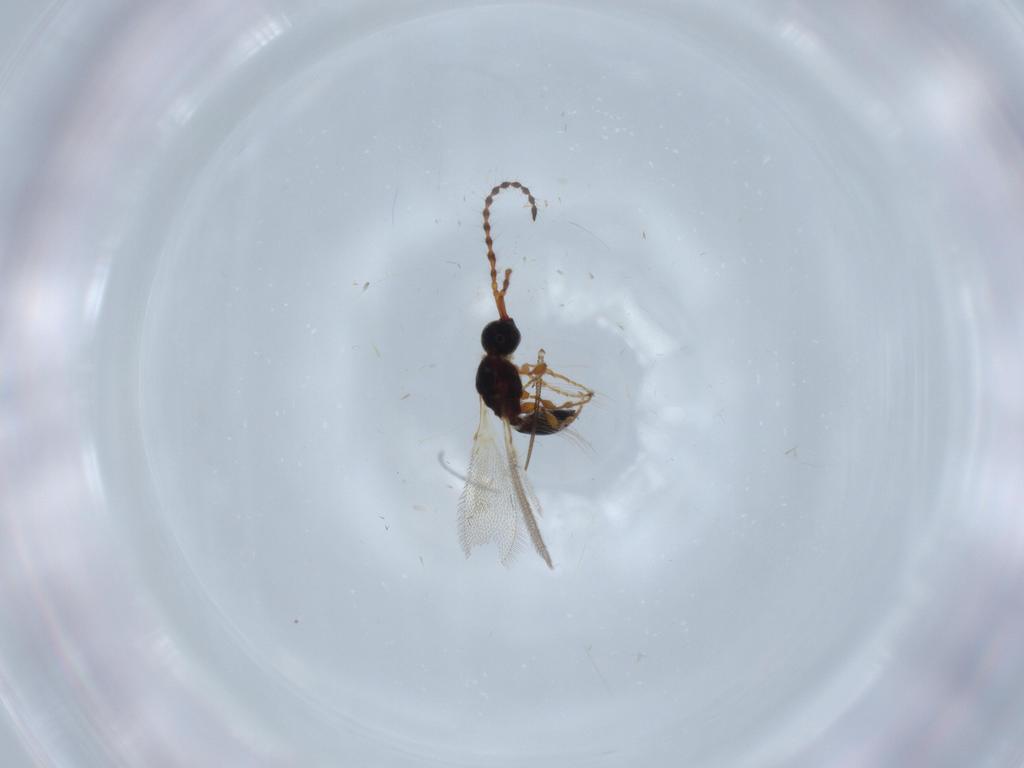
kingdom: Animalia
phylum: Arthropoda
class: Insecta
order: Hymenoptera
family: Diapriidae
